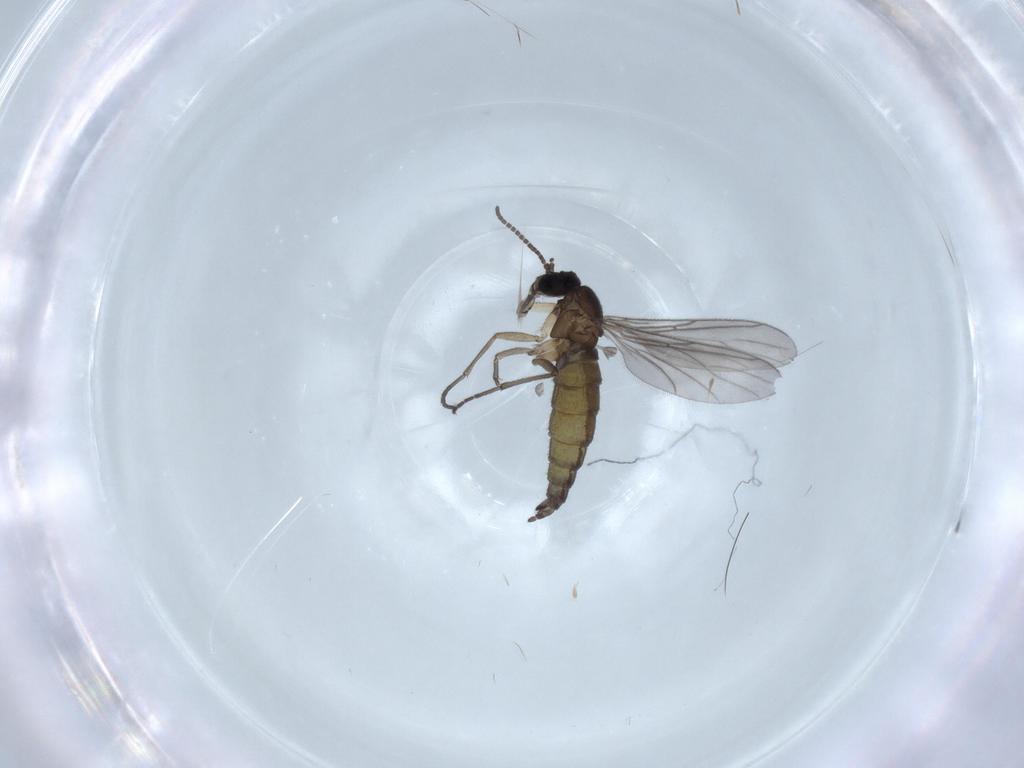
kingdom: Animalia
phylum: Arthropoda
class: Insecta
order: Diptera
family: Sciaridae
